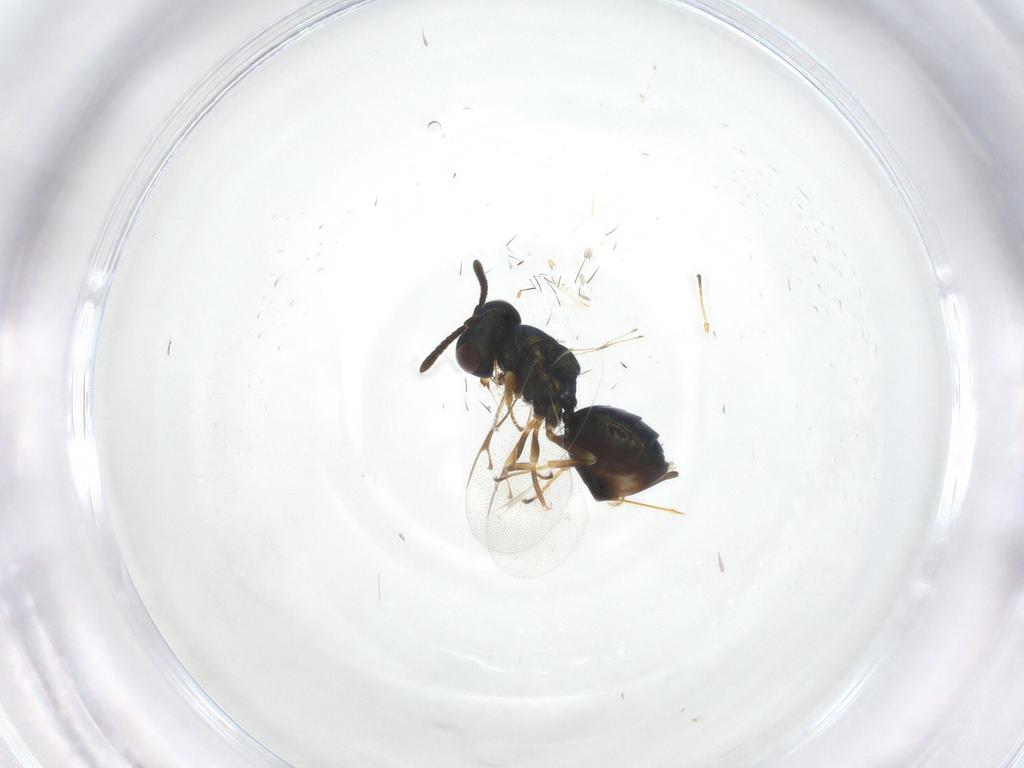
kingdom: Animalia
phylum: Arthropoda
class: Insecta
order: Hymenoptera
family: Pteromalidae
